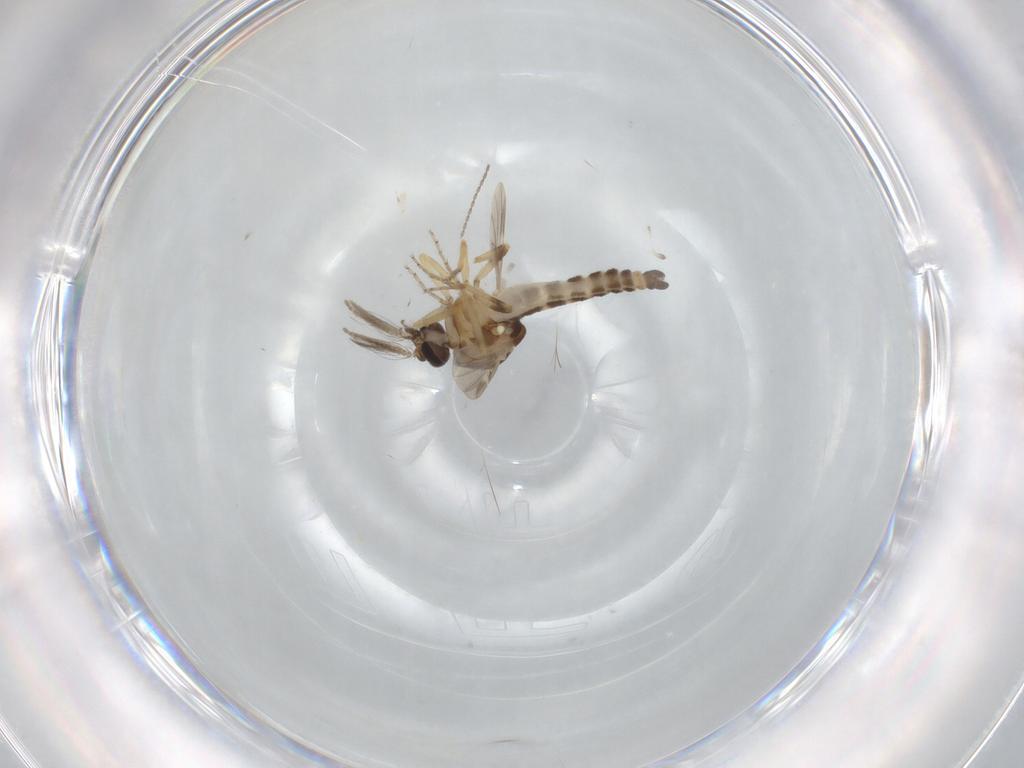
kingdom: Animalia
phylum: Arthropoda
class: Insecta
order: Diptera
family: Ceratopogonidae
